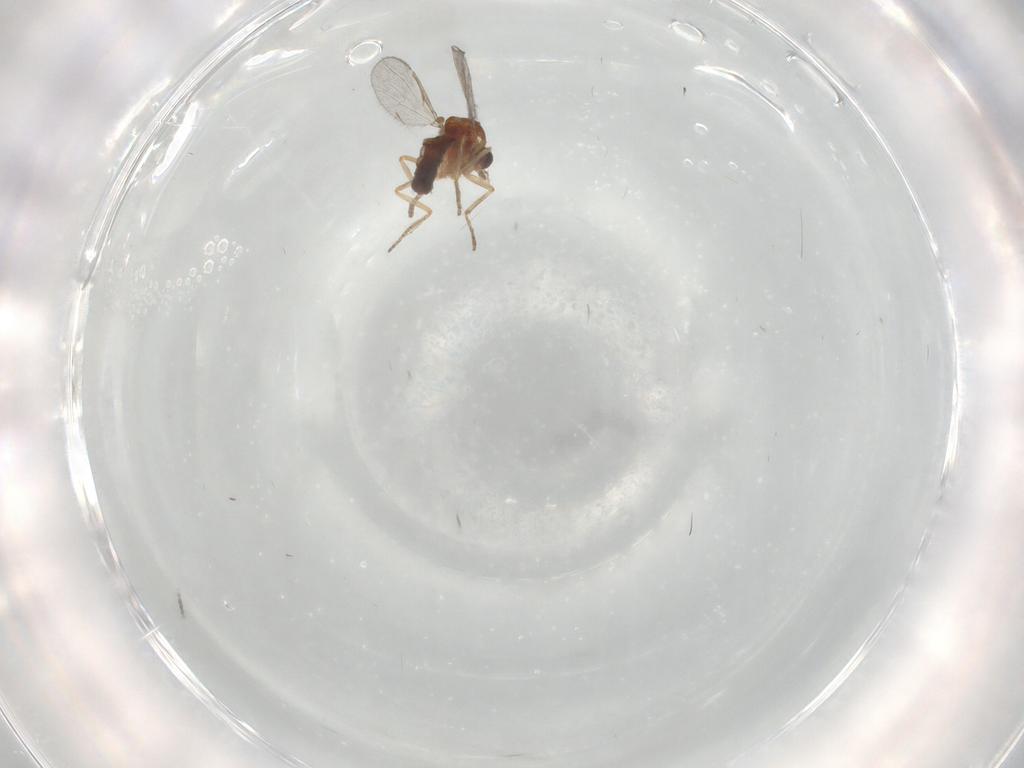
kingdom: Animalia
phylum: Arthropoda
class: Insecta
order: Diptera
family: Ceratopogonidae
